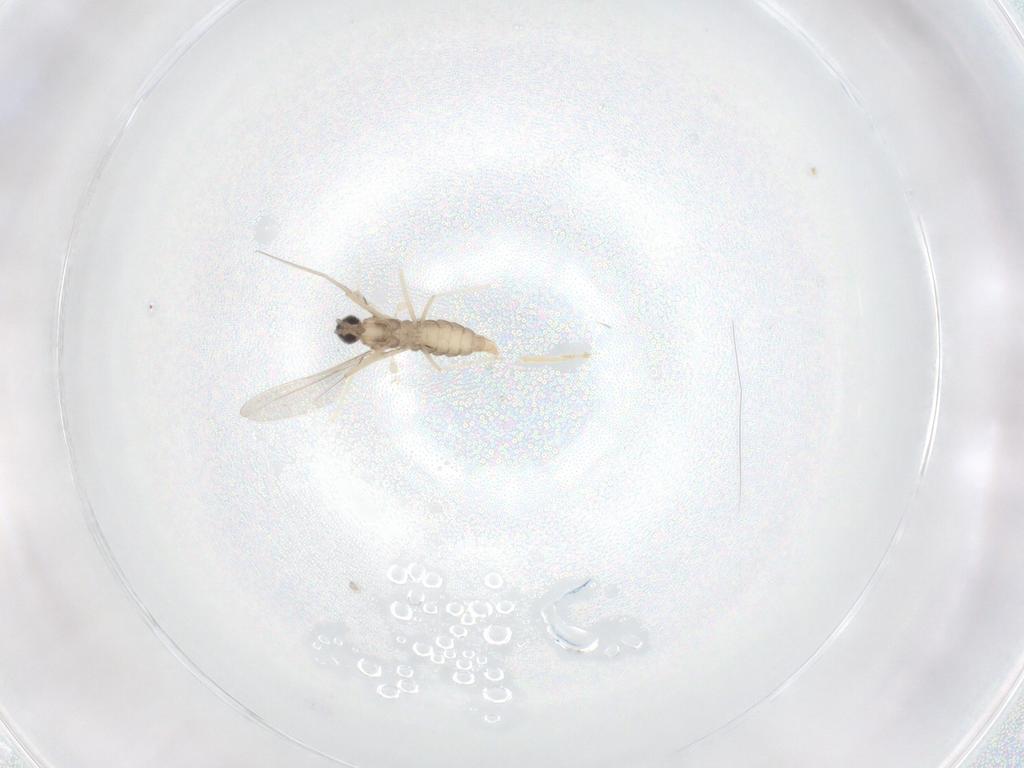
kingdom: Animalia
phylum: Arthropoda
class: Insecta
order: Diptera
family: Cecidomyiidae
